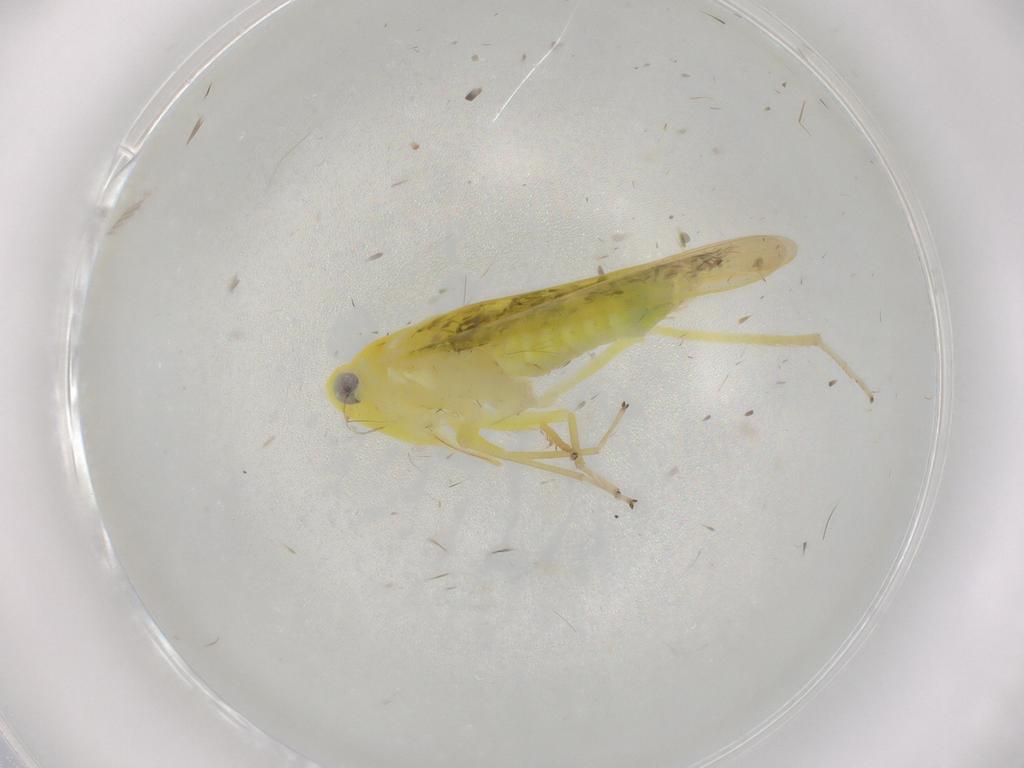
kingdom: Animalia
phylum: Arthropoda
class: Insecta
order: Hemiptera
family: Cicadellidae
